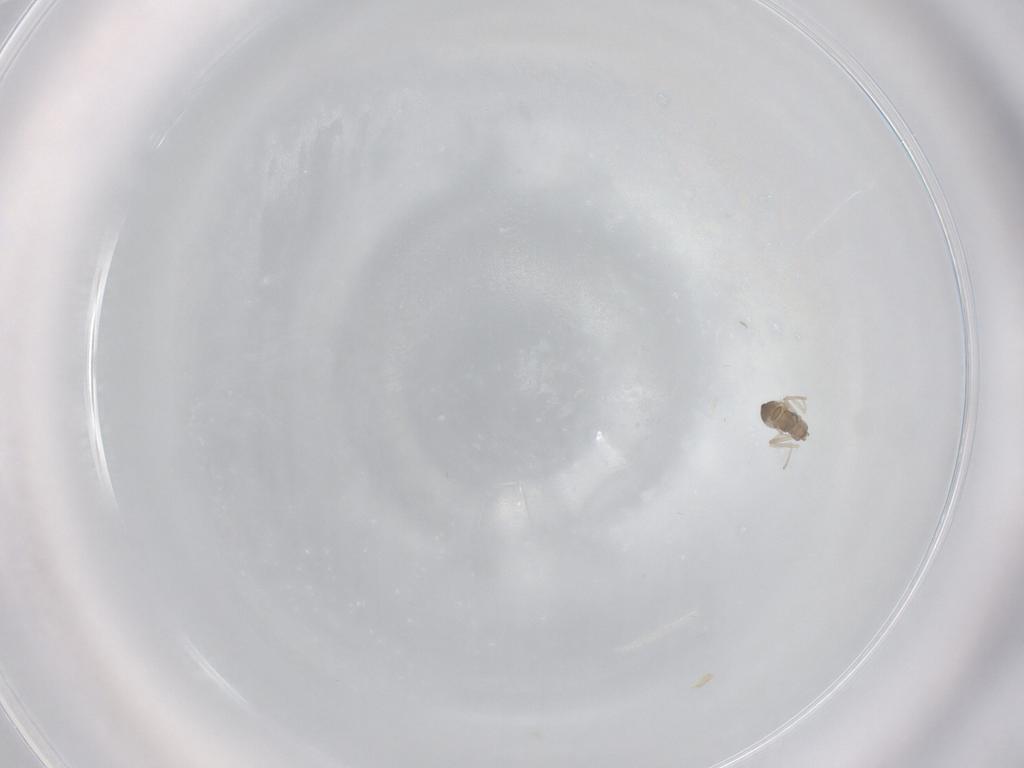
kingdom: Animalia
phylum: Arthropoda
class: Insecta
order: Diptera
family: Cecidomyiidae
